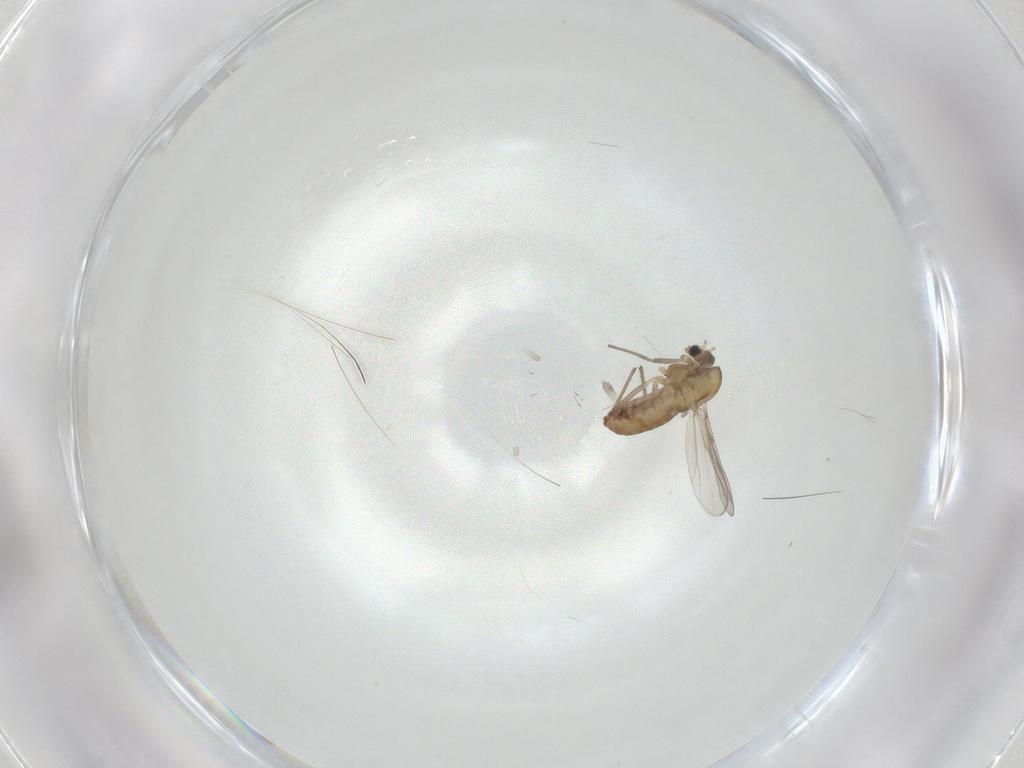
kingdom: Animalia
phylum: Arthropoda
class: Insecta
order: Diptera
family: Chironomidae
